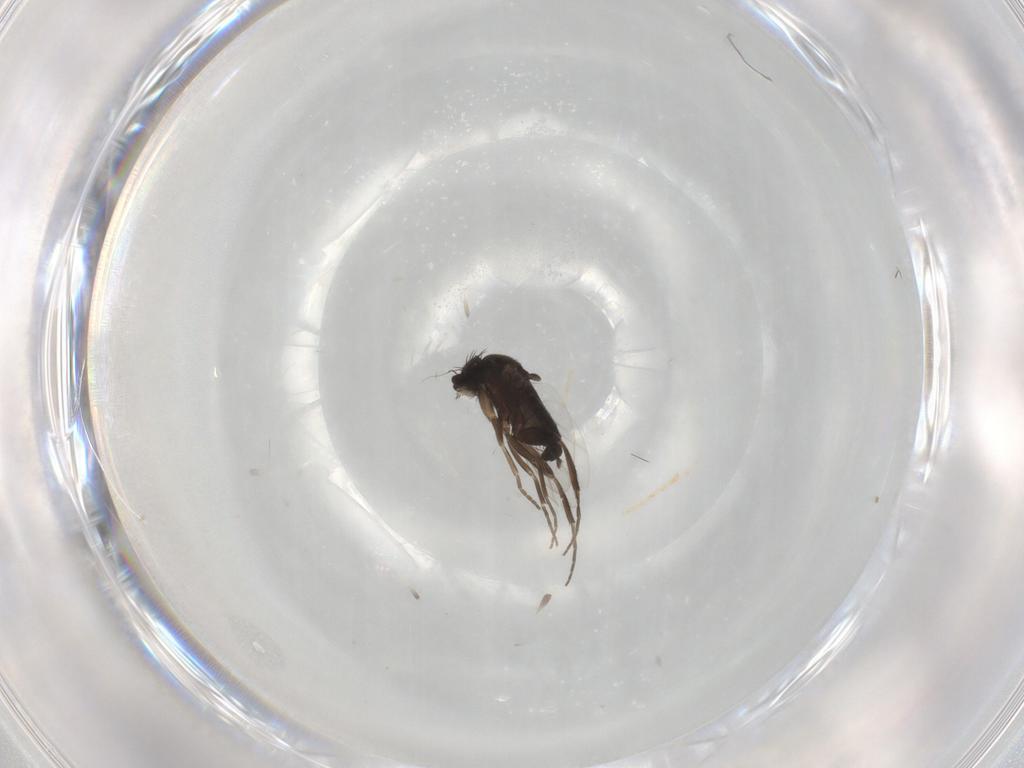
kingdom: Animalia
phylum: Arthropoda
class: Insecta
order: Diptera
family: Phoridae
